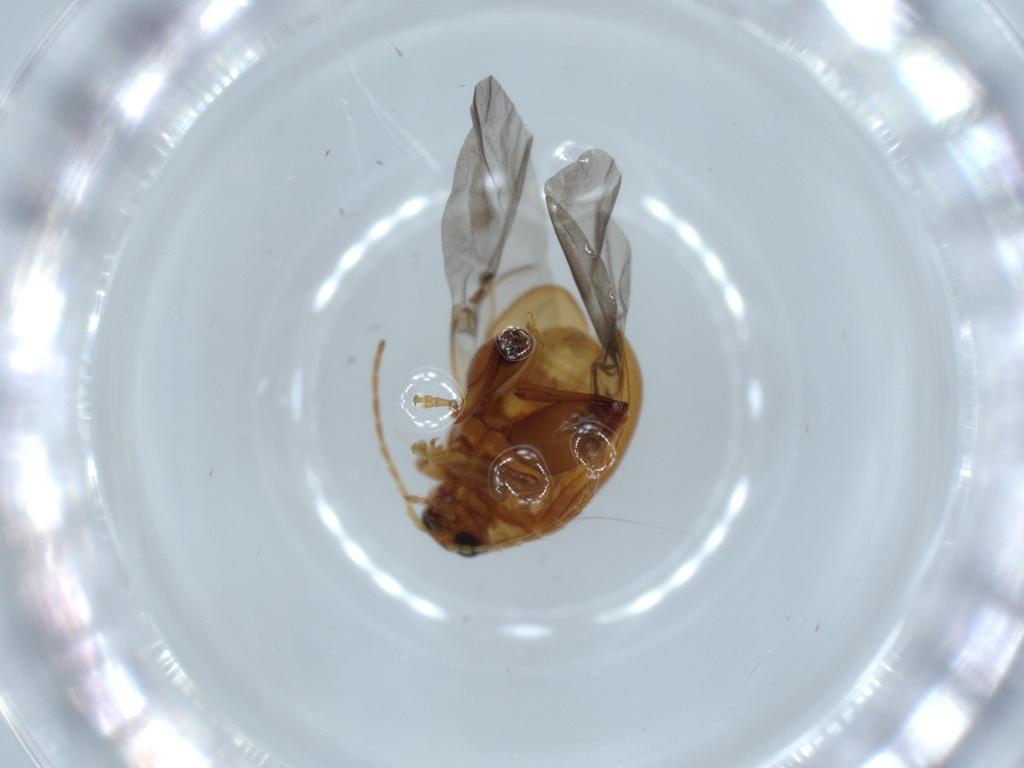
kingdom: Animalia
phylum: Arthropoda
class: Insecta
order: Coleoptera
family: Chrysomelidae
